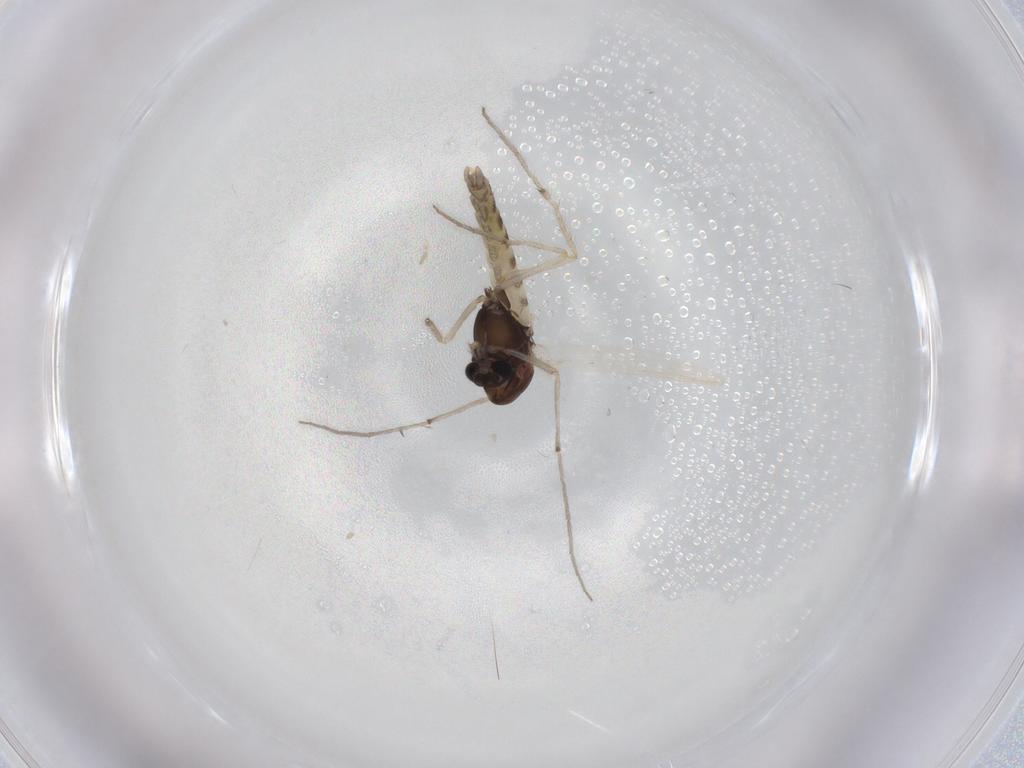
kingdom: Animalia
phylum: Arthropoda
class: Insecta
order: Diptera
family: Chironomidae
